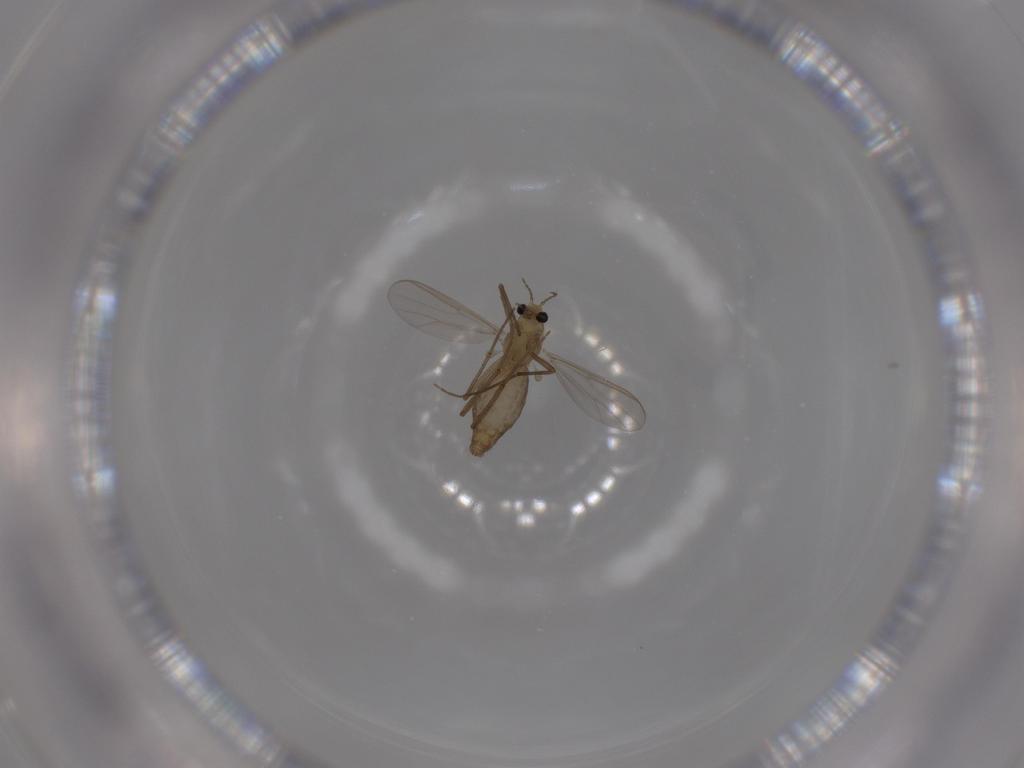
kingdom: Animalia
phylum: Arthropoda
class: Insecta
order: Diptera
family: Chironomidae
